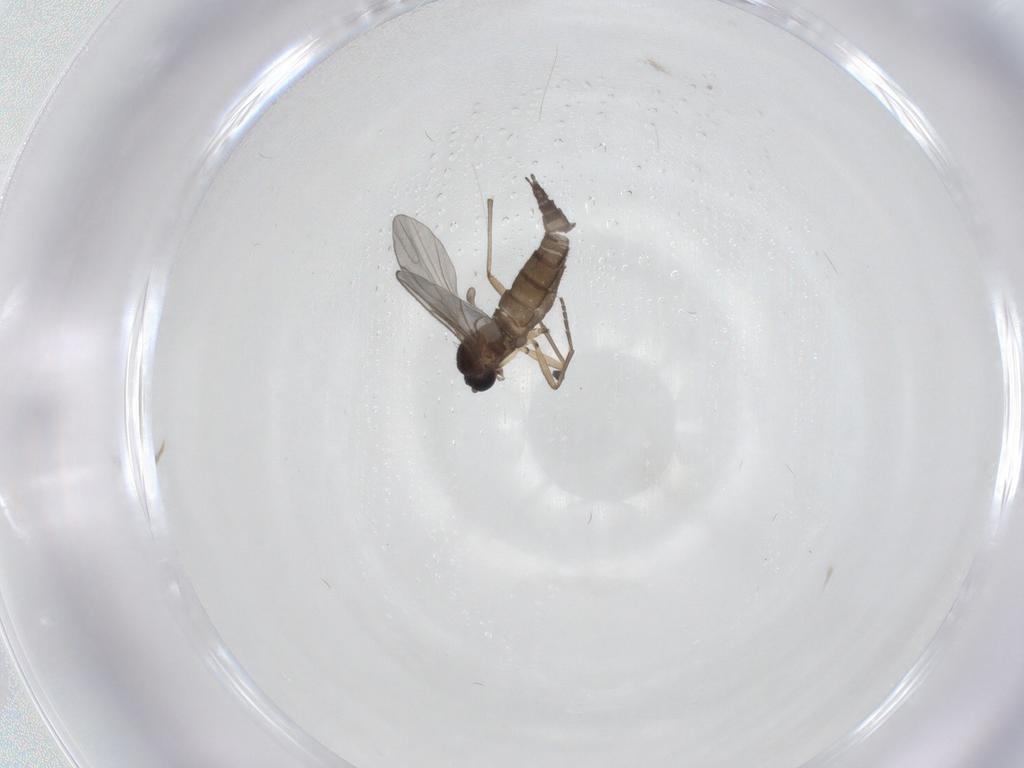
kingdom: Animalia
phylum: Arthropoda
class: Insecta
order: Diptera
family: Sciaridae
